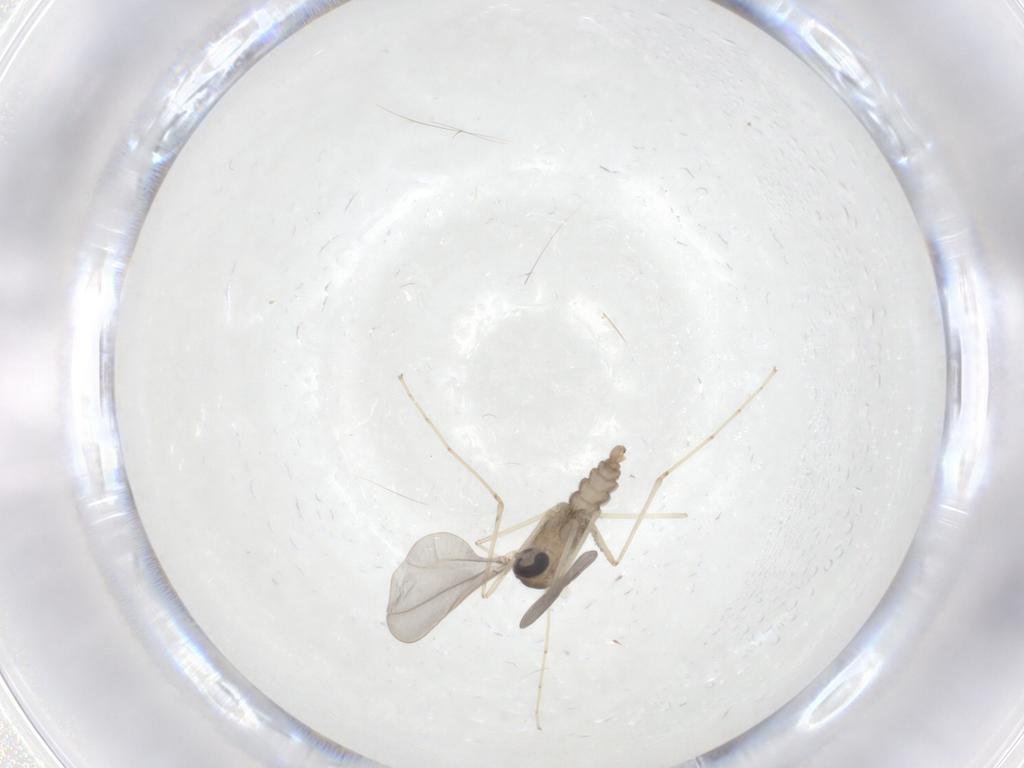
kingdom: Animalia
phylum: Arthropoda
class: Insecta
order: Diptera
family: Cecidomyiidae
